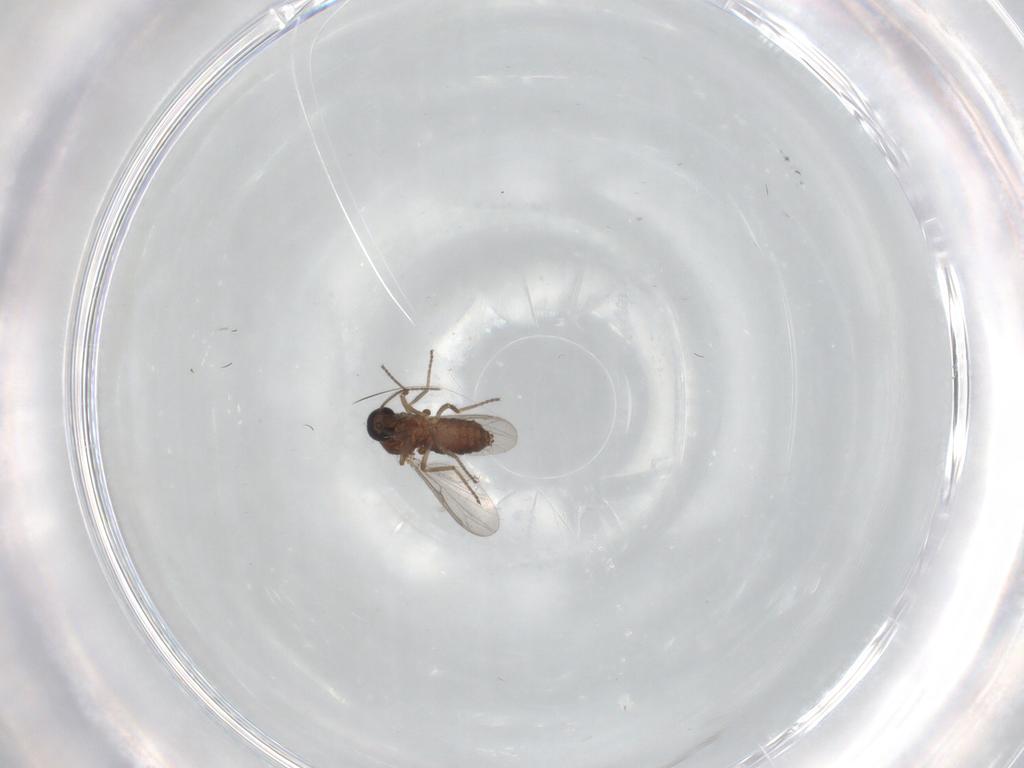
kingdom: Animalia
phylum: Arthropoda
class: Insecta
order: Diptera
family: Ceratopogonidae
